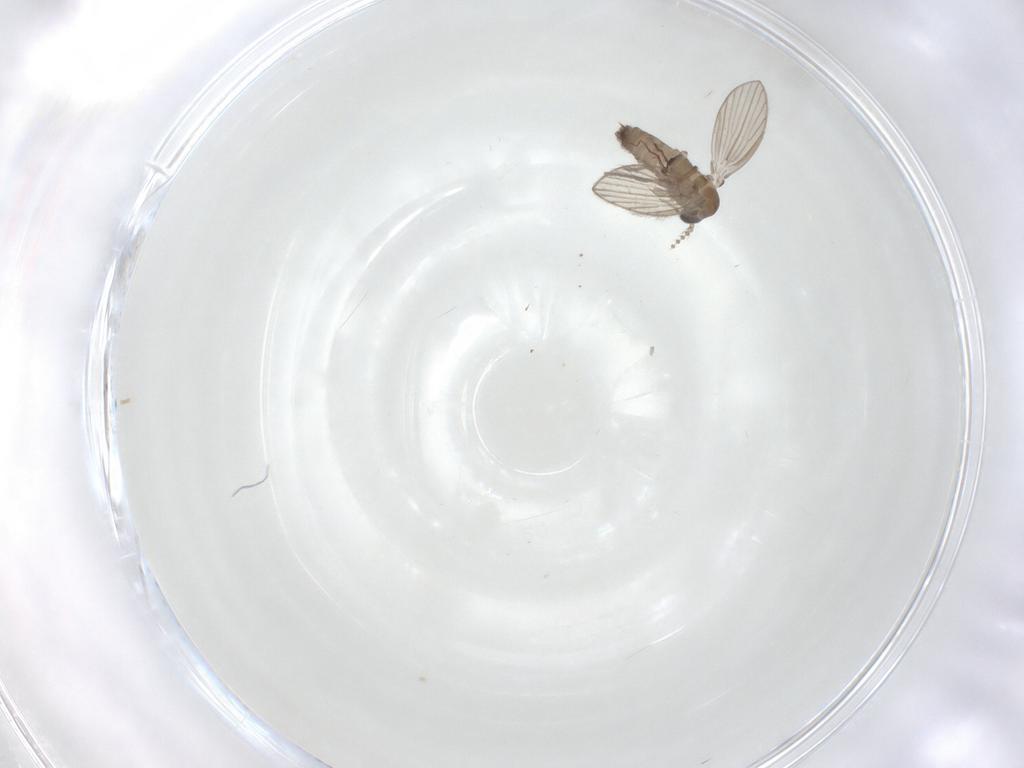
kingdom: Animalia
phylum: Arthropoda
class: Insecta
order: Diptera
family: Psychodidae
